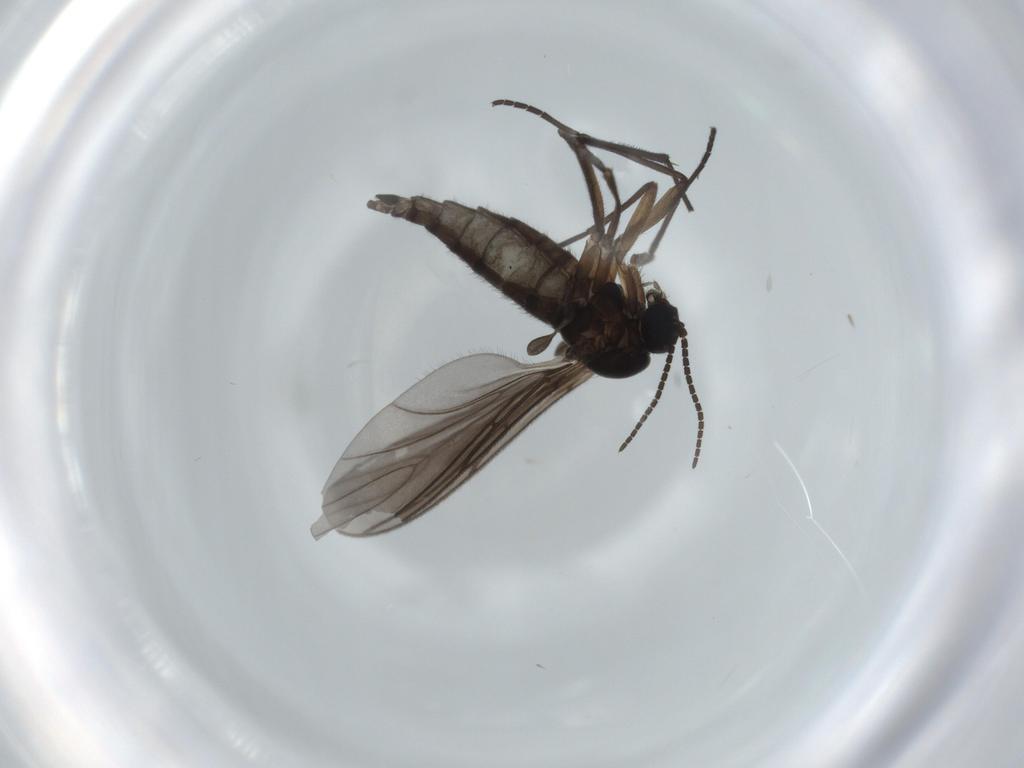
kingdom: Animalia
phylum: Arthropoda
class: Insecta
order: Diptera
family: Sciaridae
